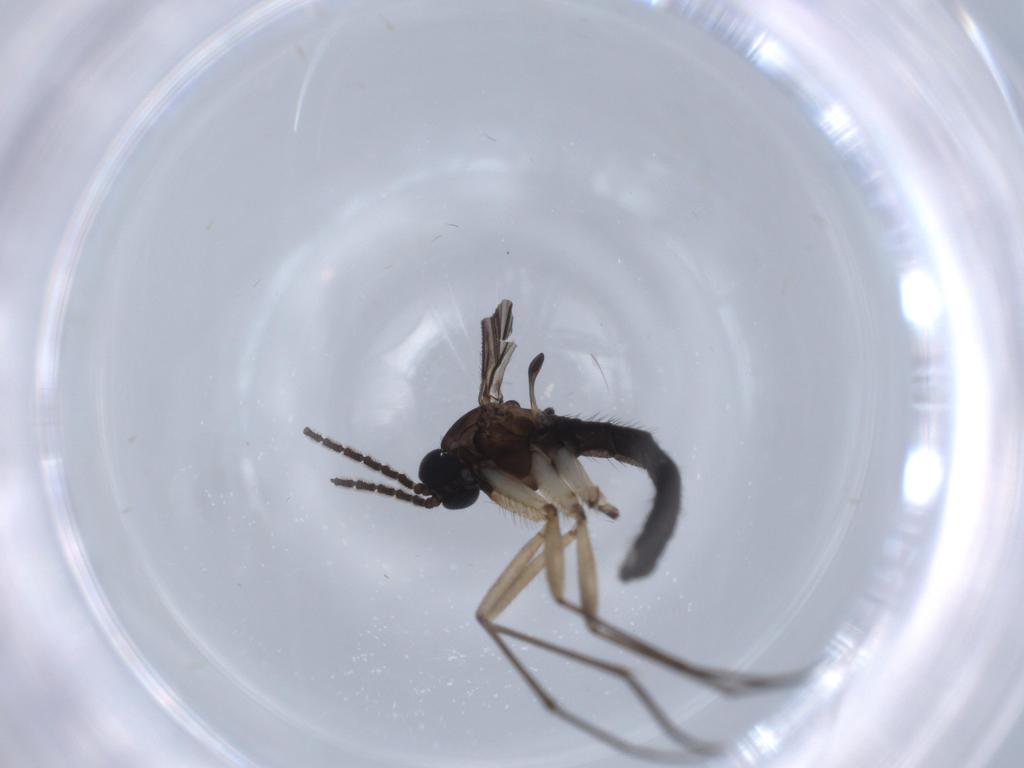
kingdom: Animalia
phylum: Arthropoda
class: Insecta
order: Diptera
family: Sciaridae
